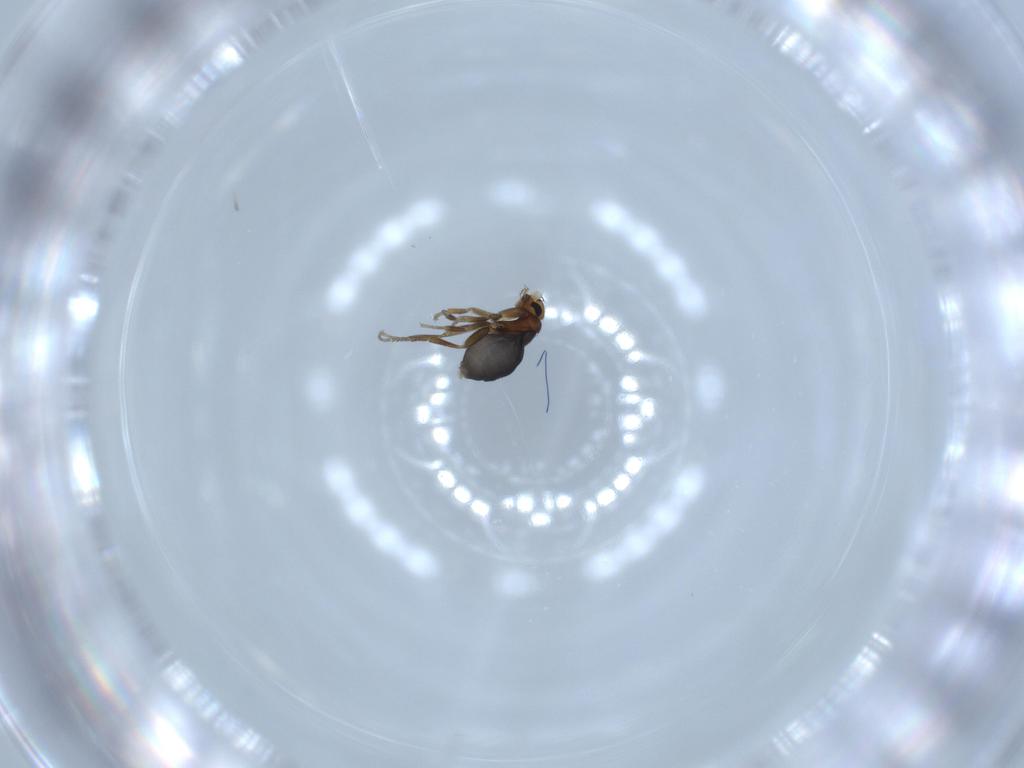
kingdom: Animalia
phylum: Arthropoda
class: Insecta
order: Diptera
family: Phoridae
